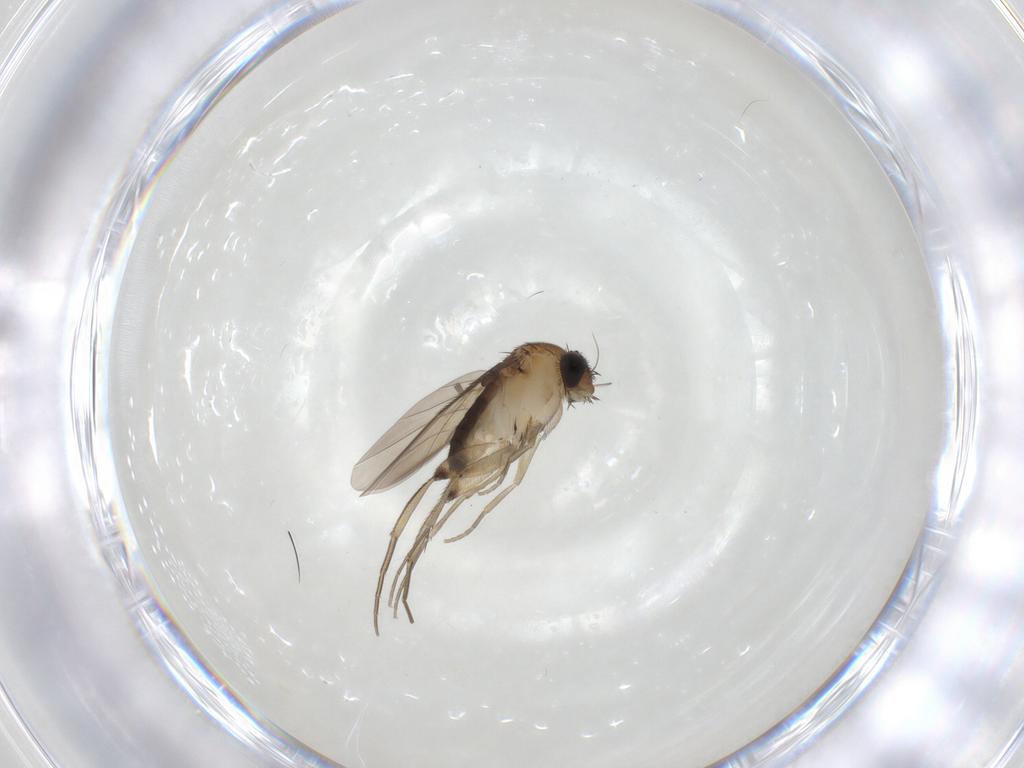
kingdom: Animalia
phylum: Arthropoda
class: Insecta
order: Diptera
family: Phoridae
